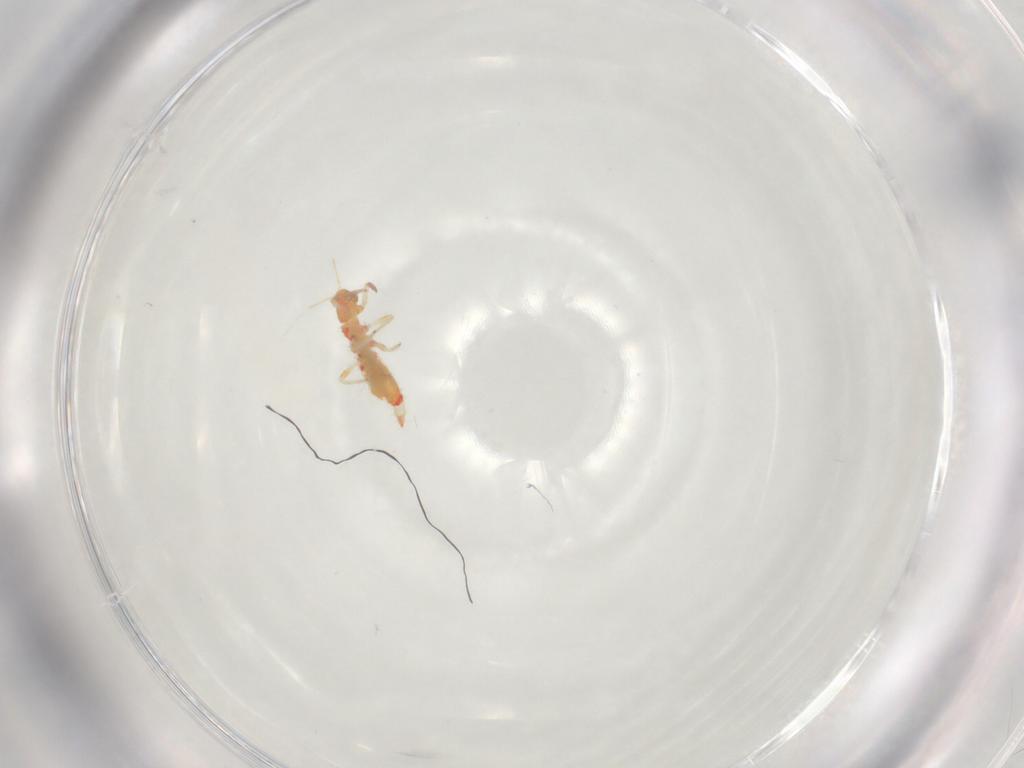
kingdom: Animalia
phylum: Arthropoda
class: Insecta
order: Thysanoptera
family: Aeolothripidae
